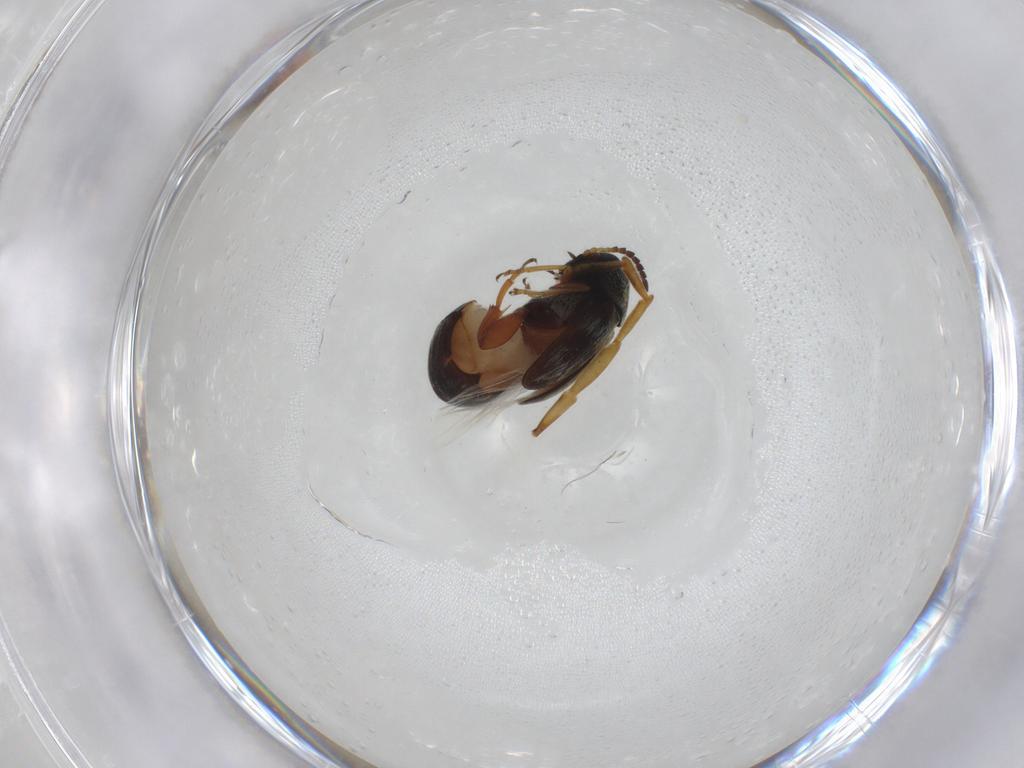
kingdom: Animalia
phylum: Arthropoda
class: Insecta
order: Coleoptera
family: Chrysomelidae
